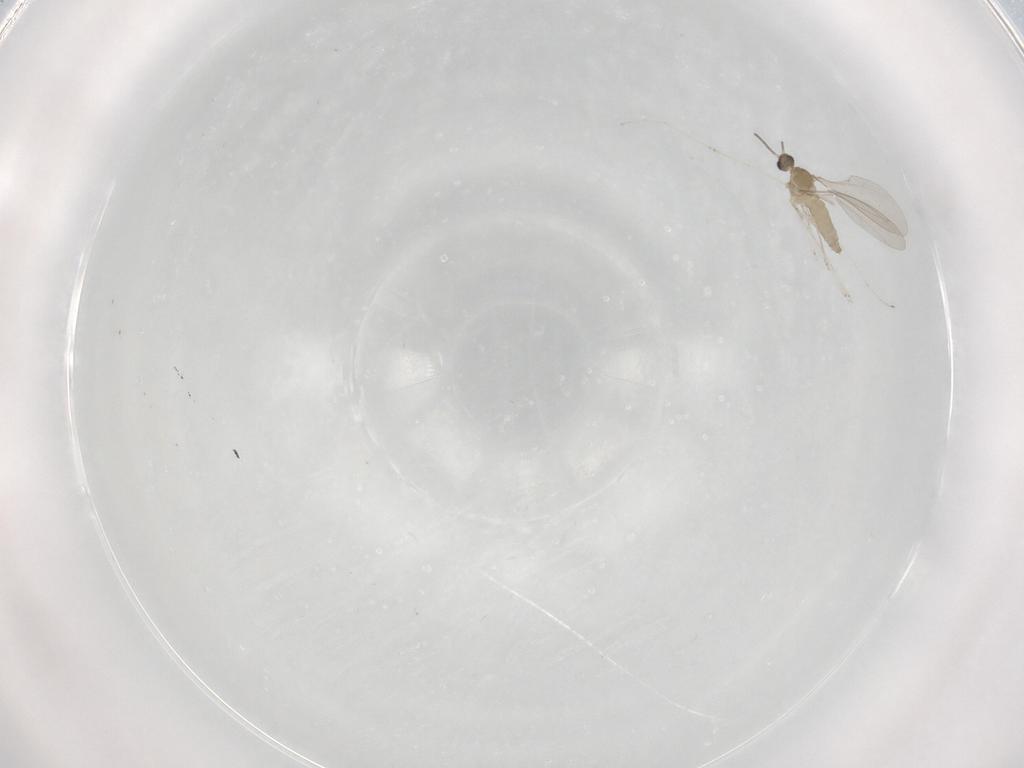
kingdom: Animalia
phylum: Arthropoda
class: Insecta
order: Diptera
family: Cecidomyiidae
